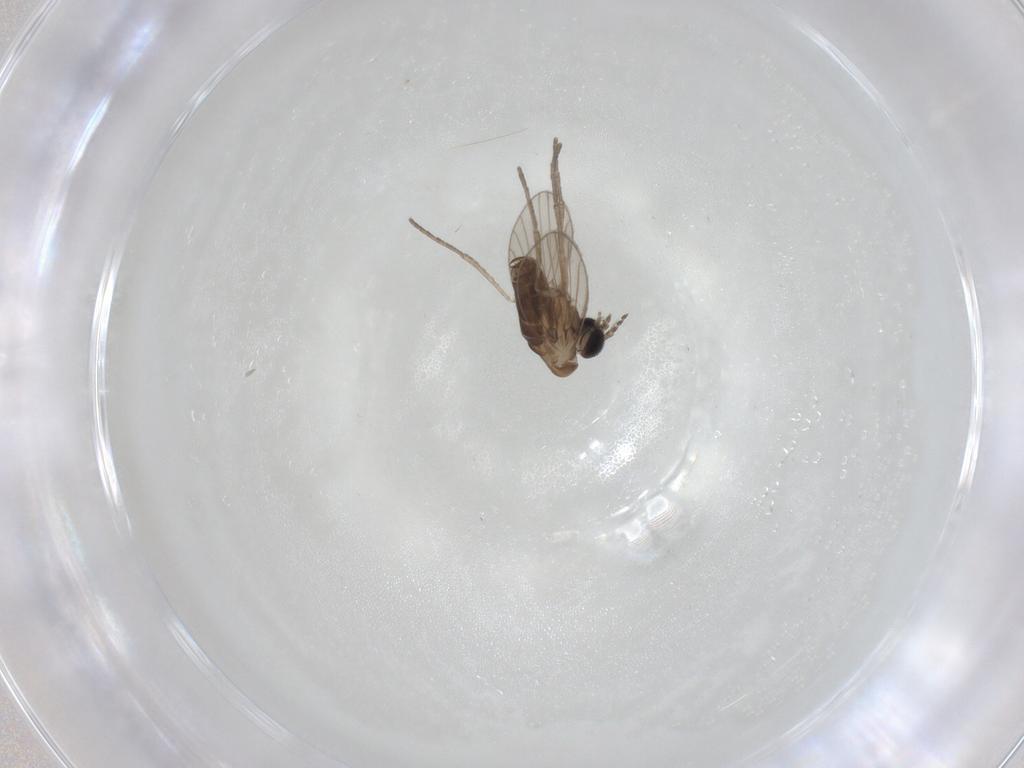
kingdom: Animalia
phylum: Arthropoda
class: Insecta
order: Diptera
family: Psychodidae
